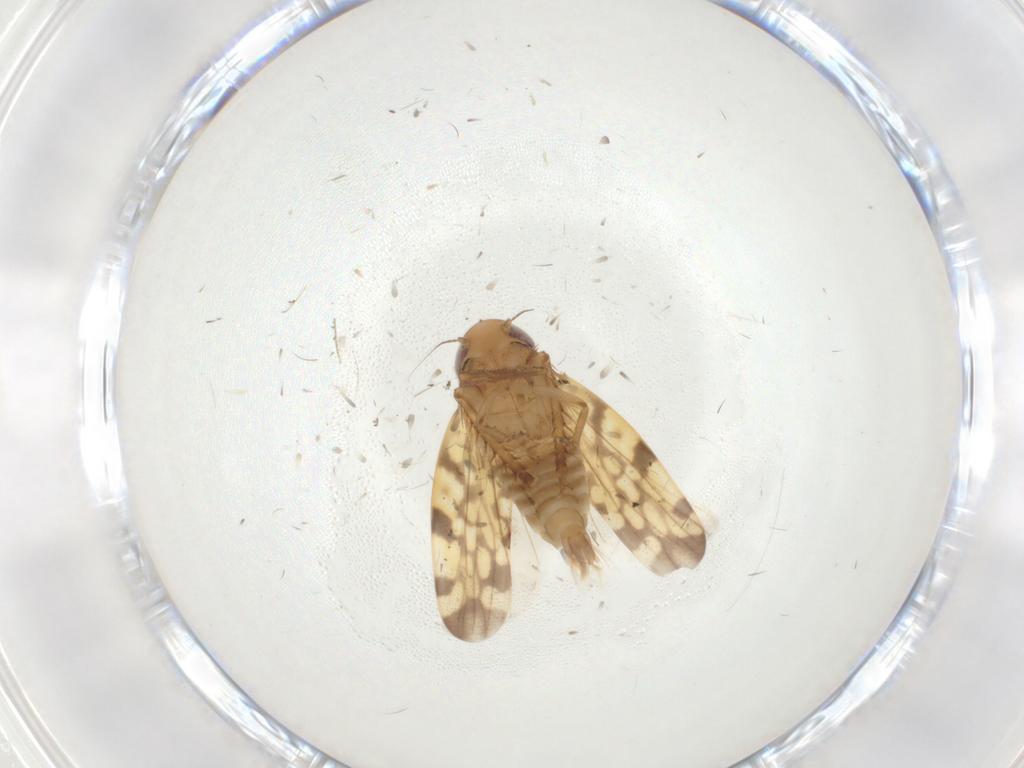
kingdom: Animalia
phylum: Arthropoda
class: Insecta
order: Hemiptera
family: Cicadellidae
